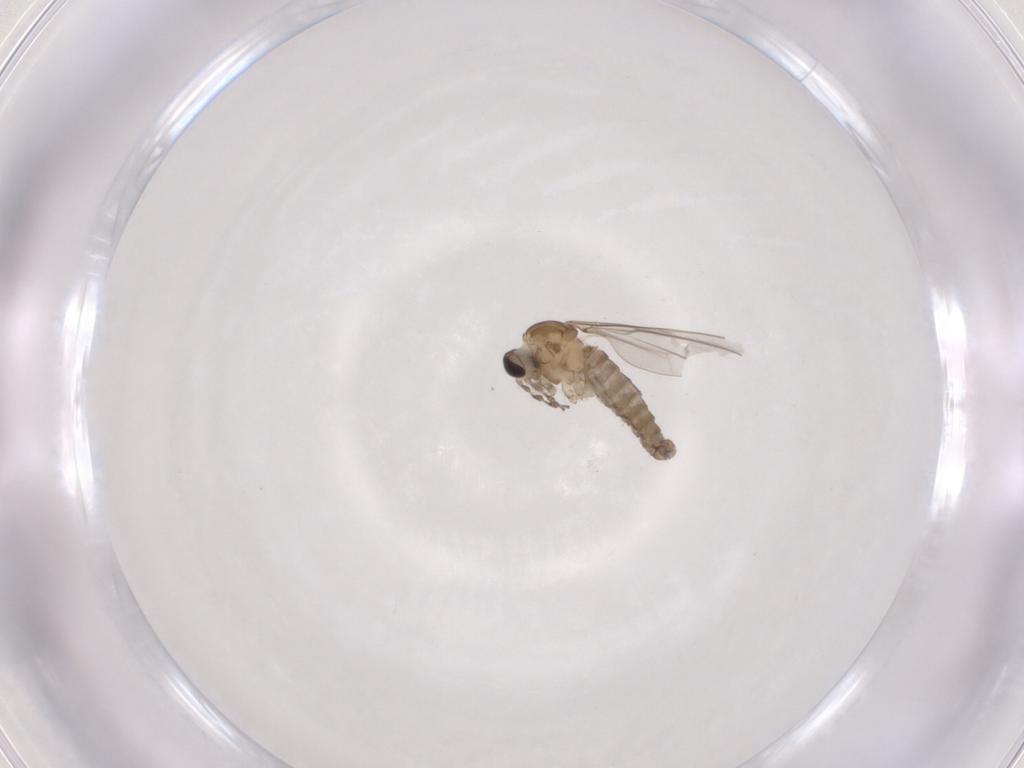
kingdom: Animalia
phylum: Arthropoda
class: Insecta
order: Diptera
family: Cecidomyiidae
